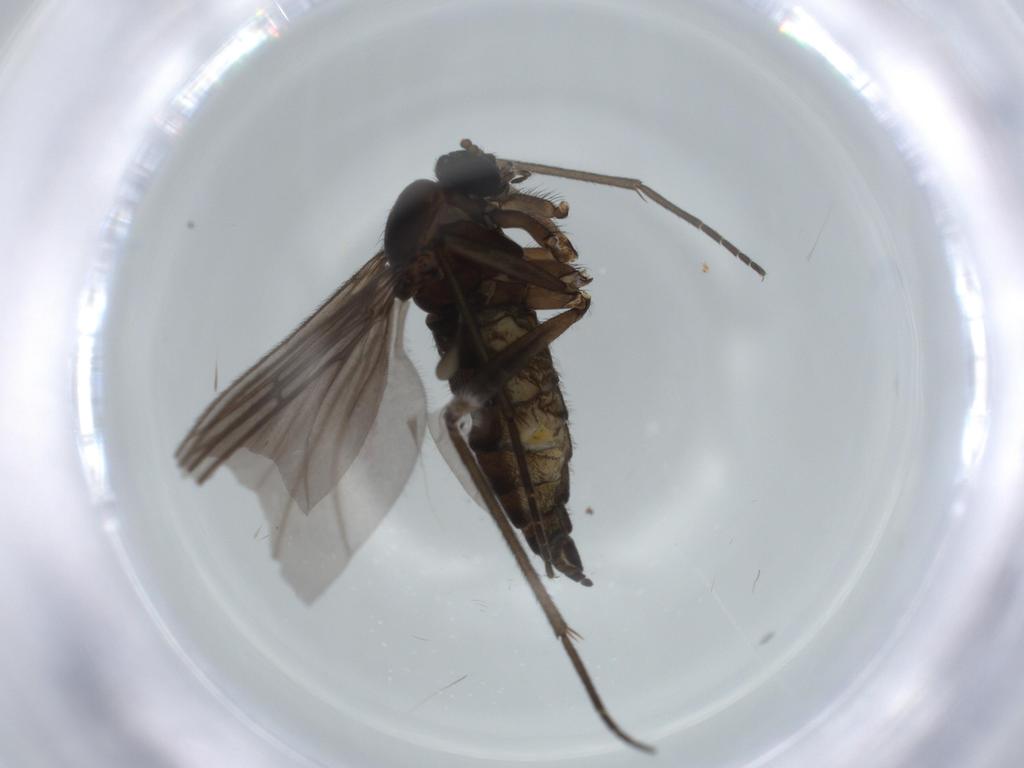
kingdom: Animalia
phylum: Arthropoda
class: Insecta
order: Diptera
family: Sciaridae
